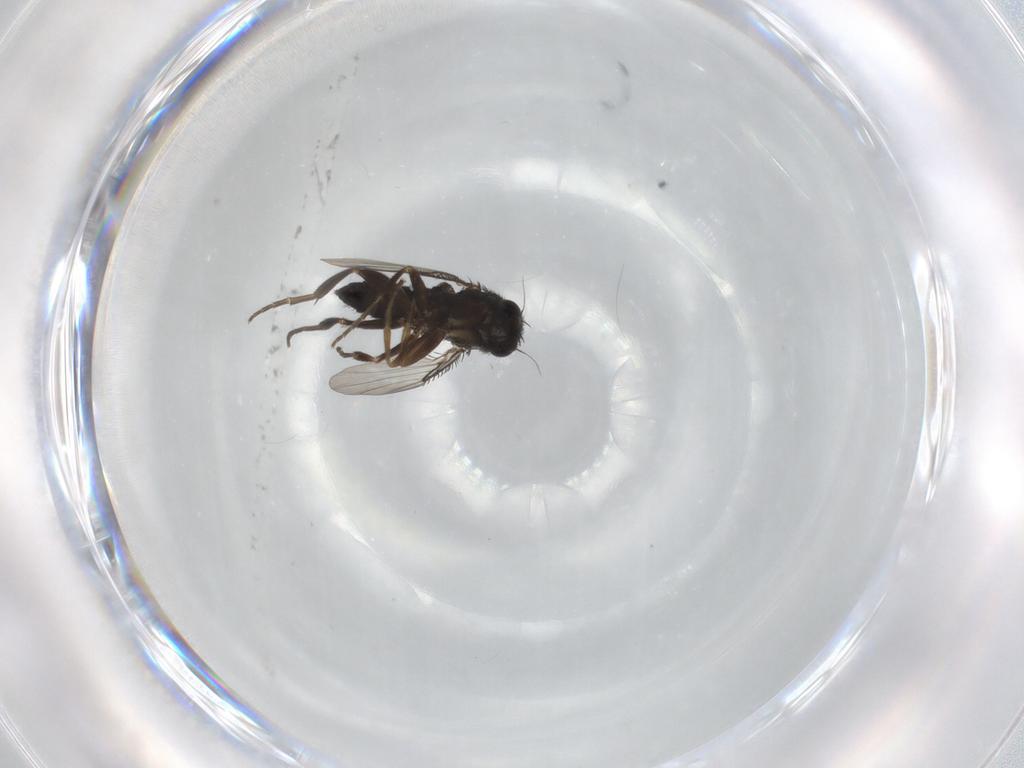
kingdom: Animalia
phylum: Arthropoda
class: Insecta
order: Diptera
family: Phoridae
